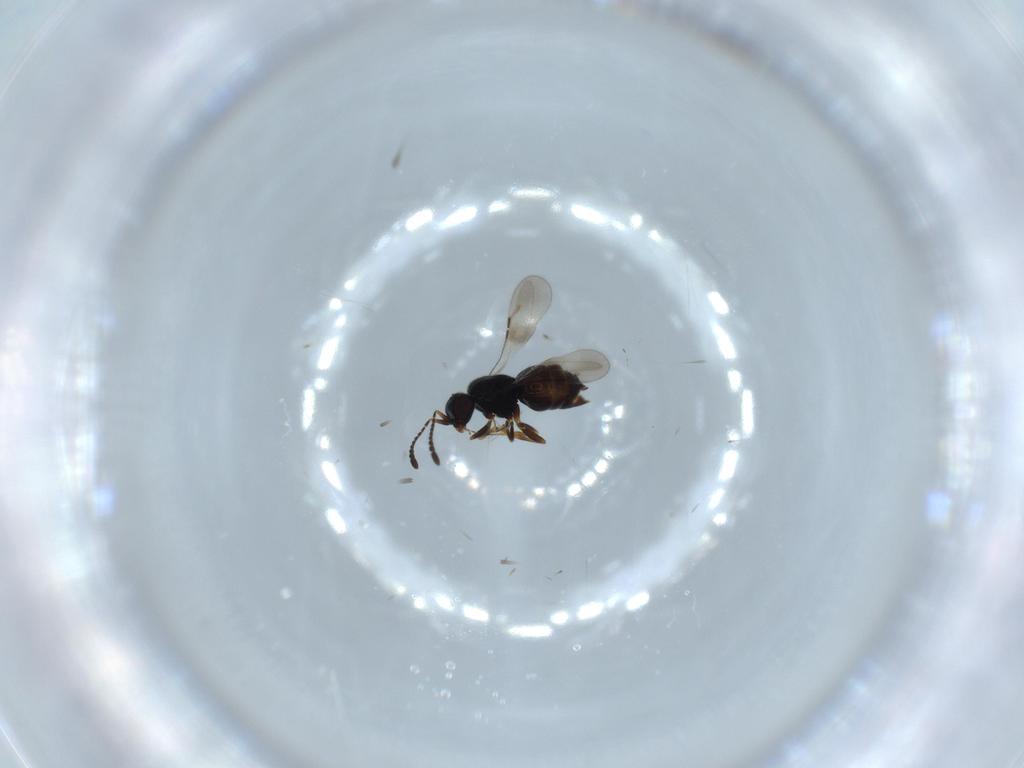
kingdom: Animalia
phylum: Arthropoda
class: Insecta
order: Hymenoptera
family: Ceraphronidae
